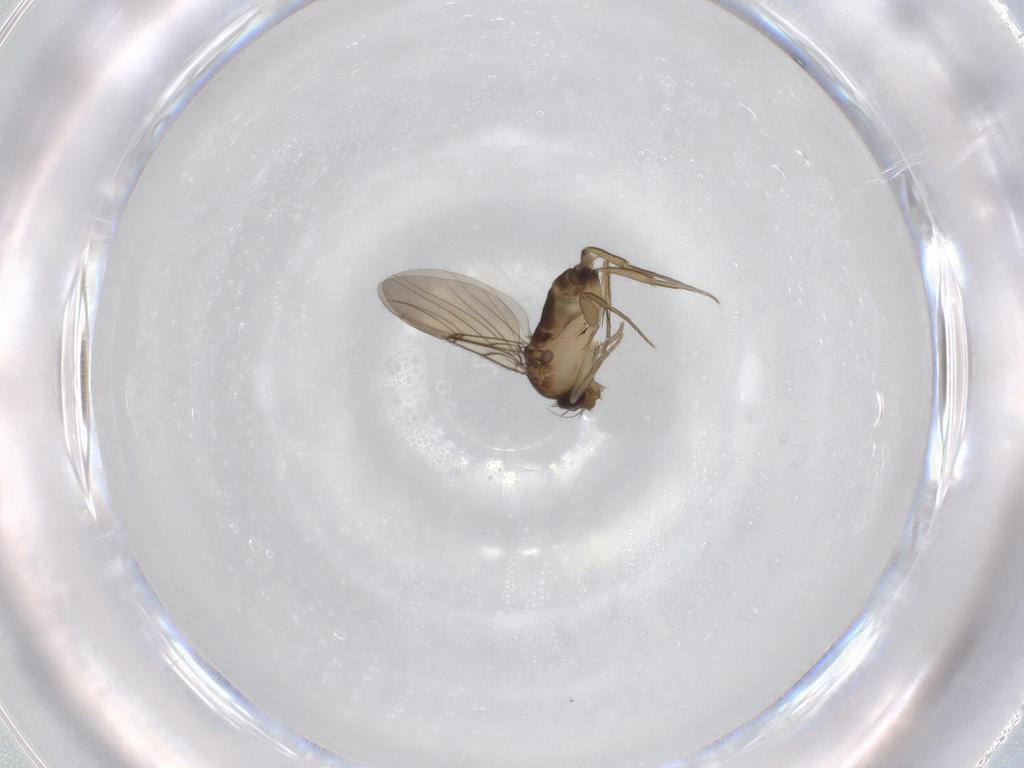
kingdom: Animalia
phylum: Arthropoda
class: Insecta
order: Diptera
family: Phoridae
